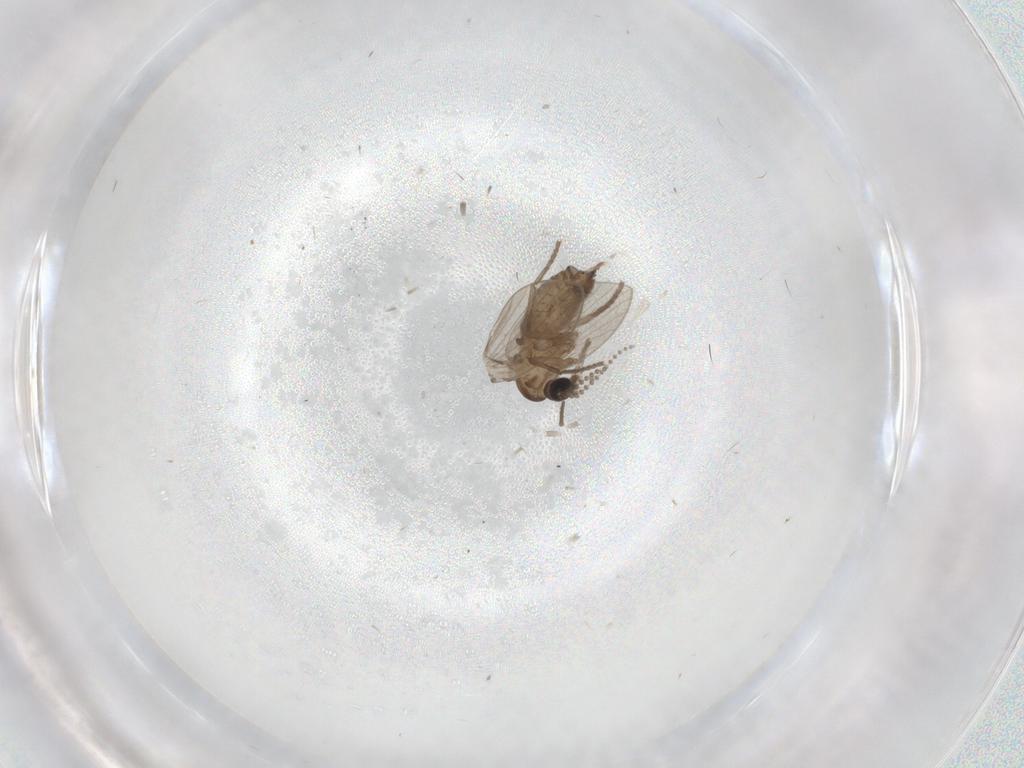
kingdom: Animalia
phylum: Arthropoda
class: Insecta
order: Diptera
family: Psychodidae
